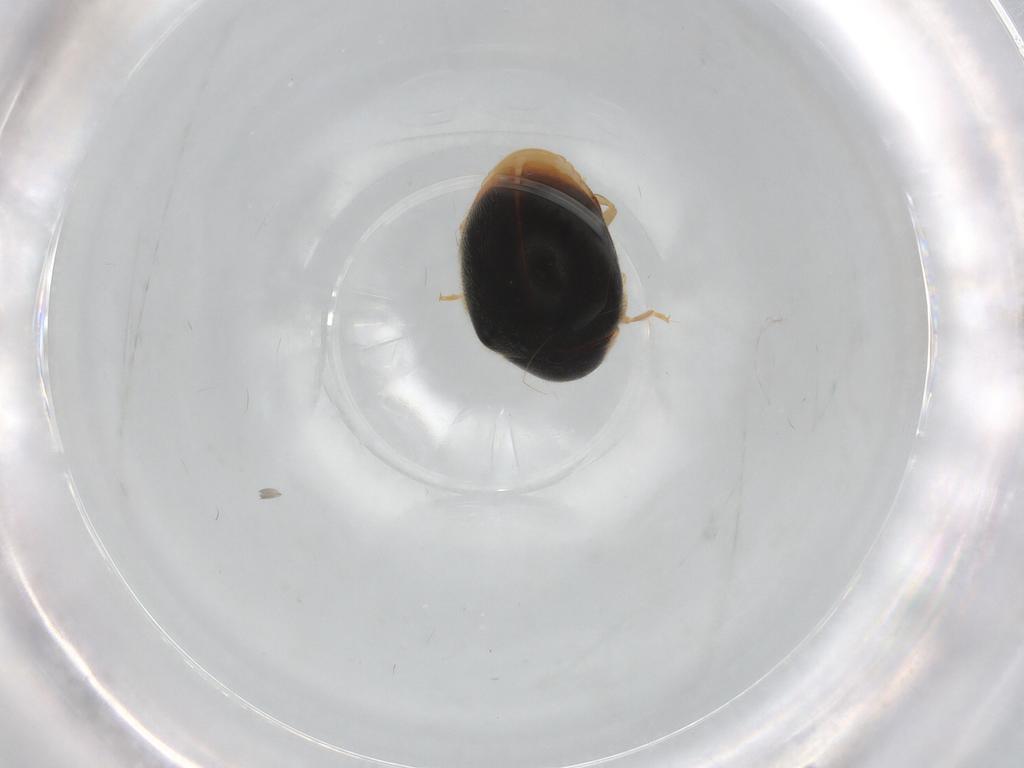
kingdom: Animalia
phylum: Arthropoda
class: Insecta
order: Coleoptera
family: Coccinellidae
